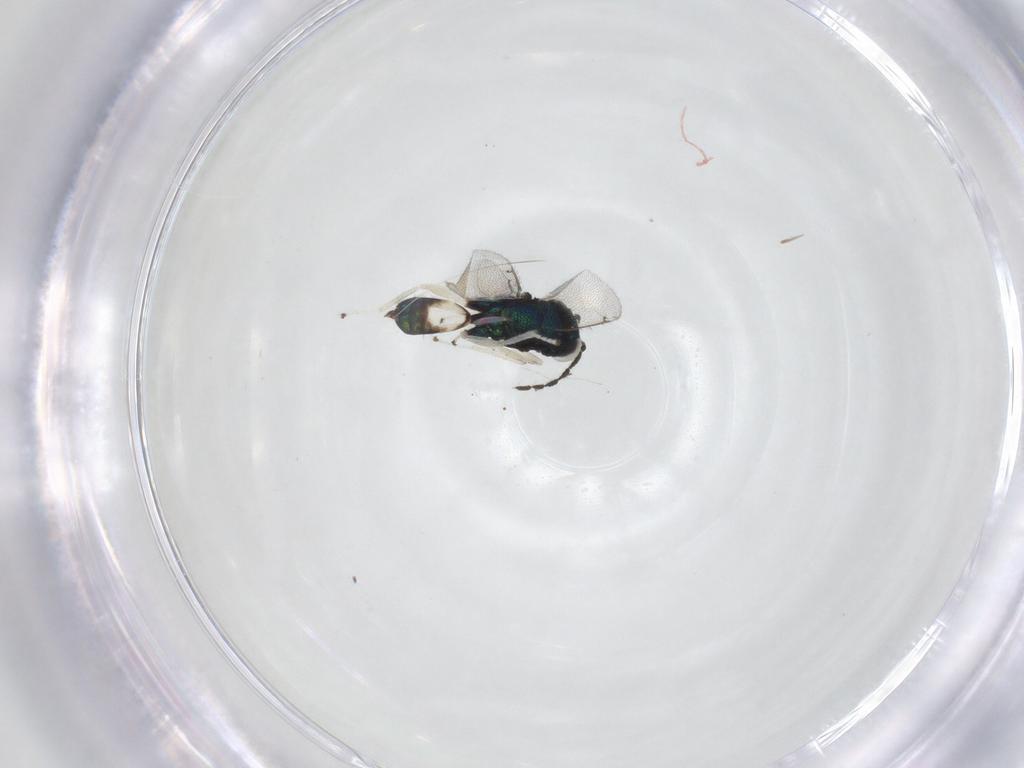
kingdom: Animalia
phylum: Arthropoda
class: Insecta
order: Hymenoptera
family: Eulophidae
